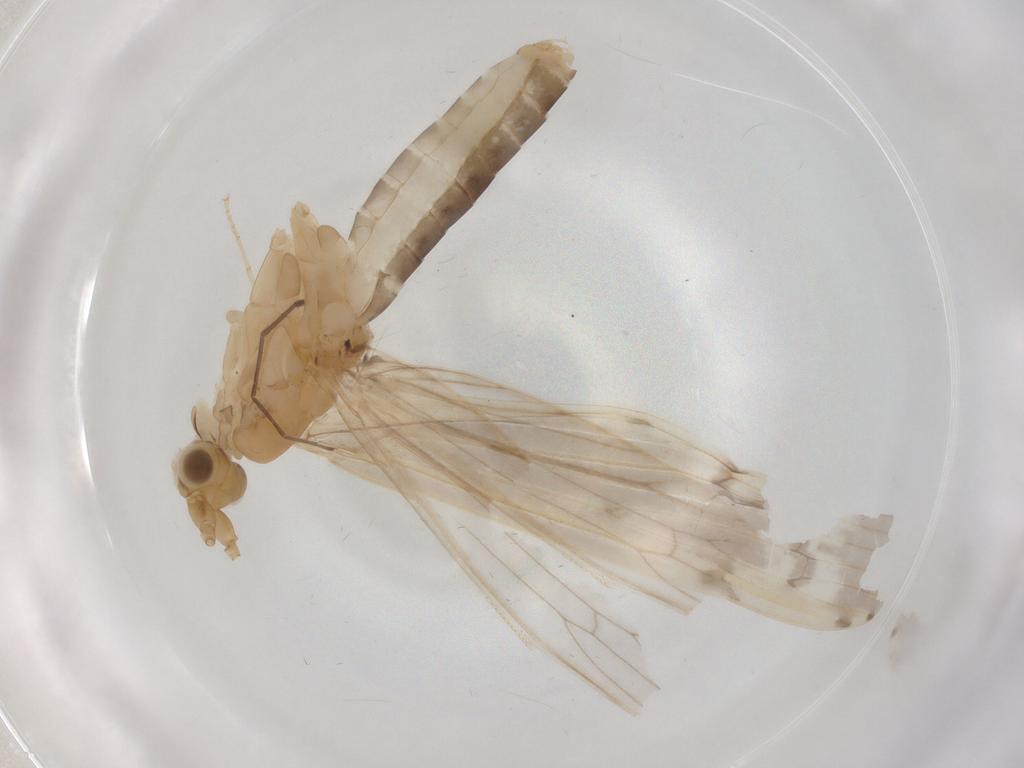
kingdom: Animalia
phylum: Arthropoda
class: Insecta
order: Trichoptera
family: Leptoceridae
